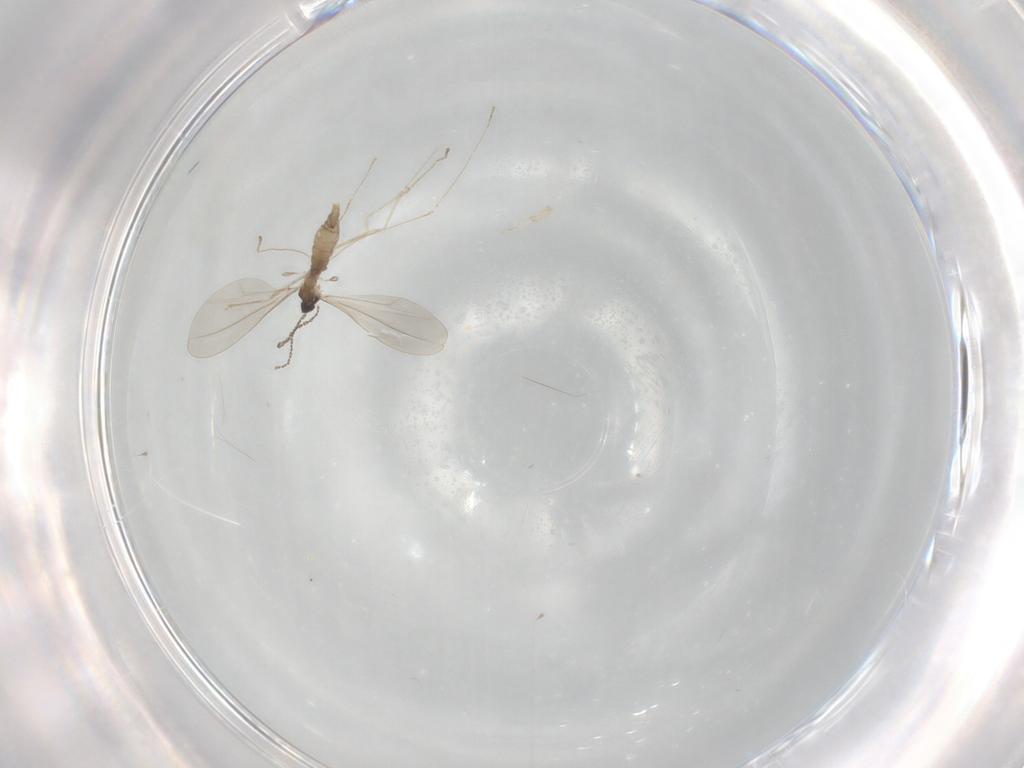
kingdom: Animalia
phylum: Arthropoda
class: Insecta
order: Diptera
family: Cecidomyiidae
